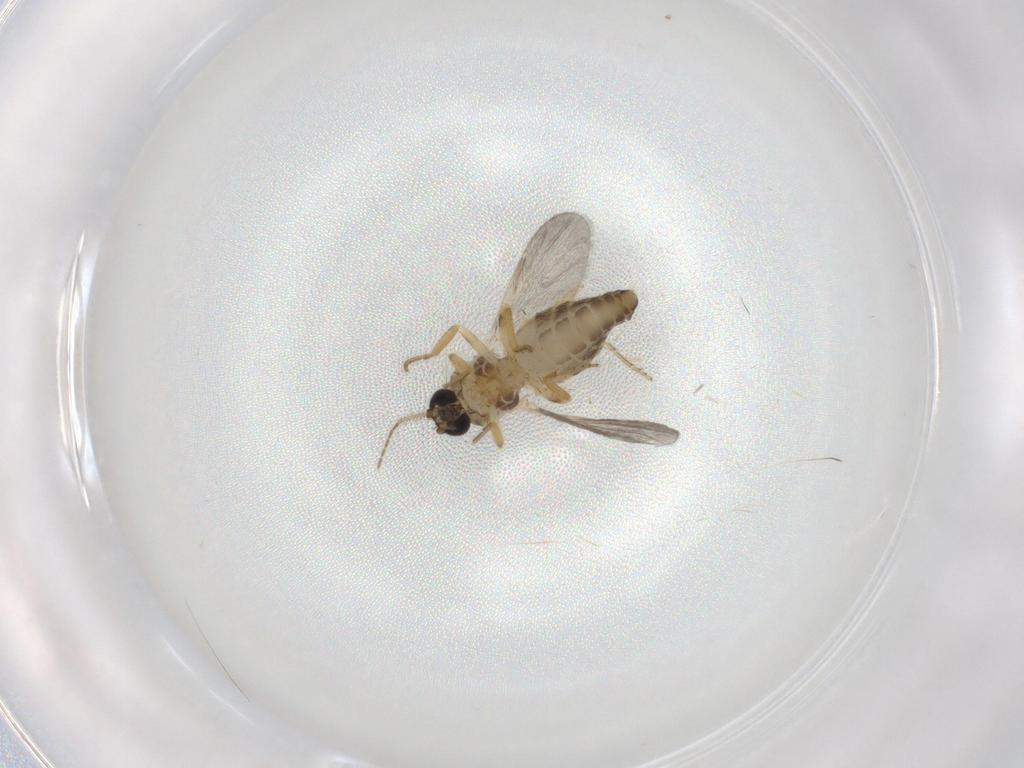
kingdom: Animalia
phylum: Arthropoda
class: Insecta
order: Diptera
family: Ceratopogonidae
